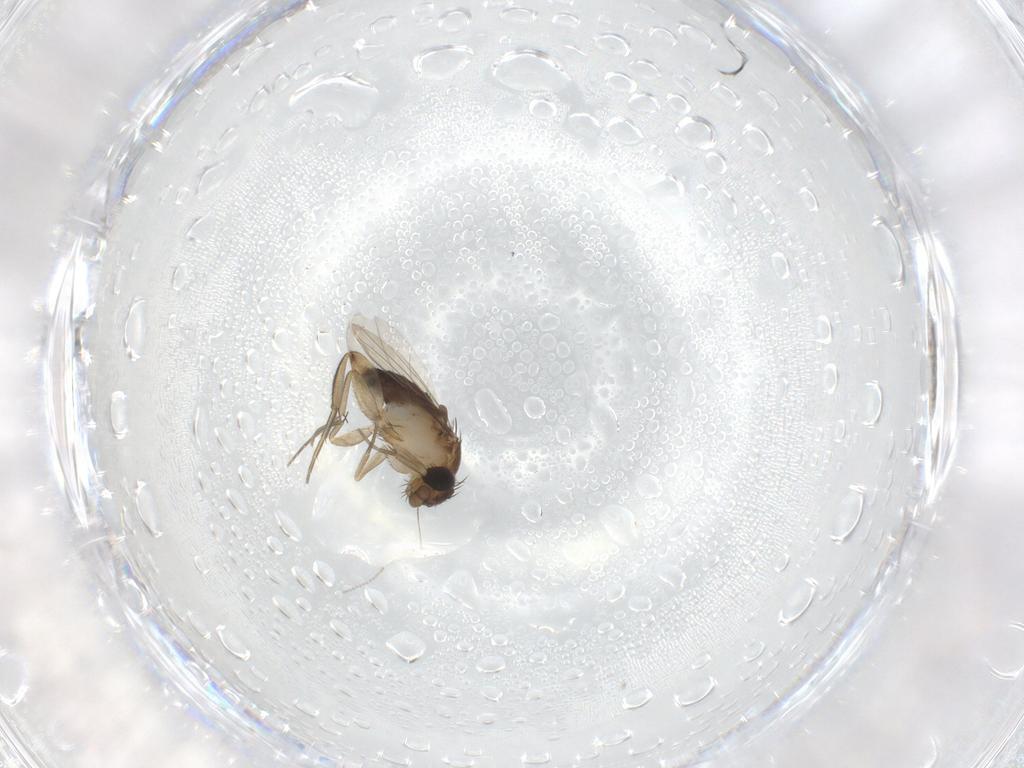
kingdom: Animalia
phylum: Arthropoda
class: Insecta
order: Diptera
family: Phoridae
